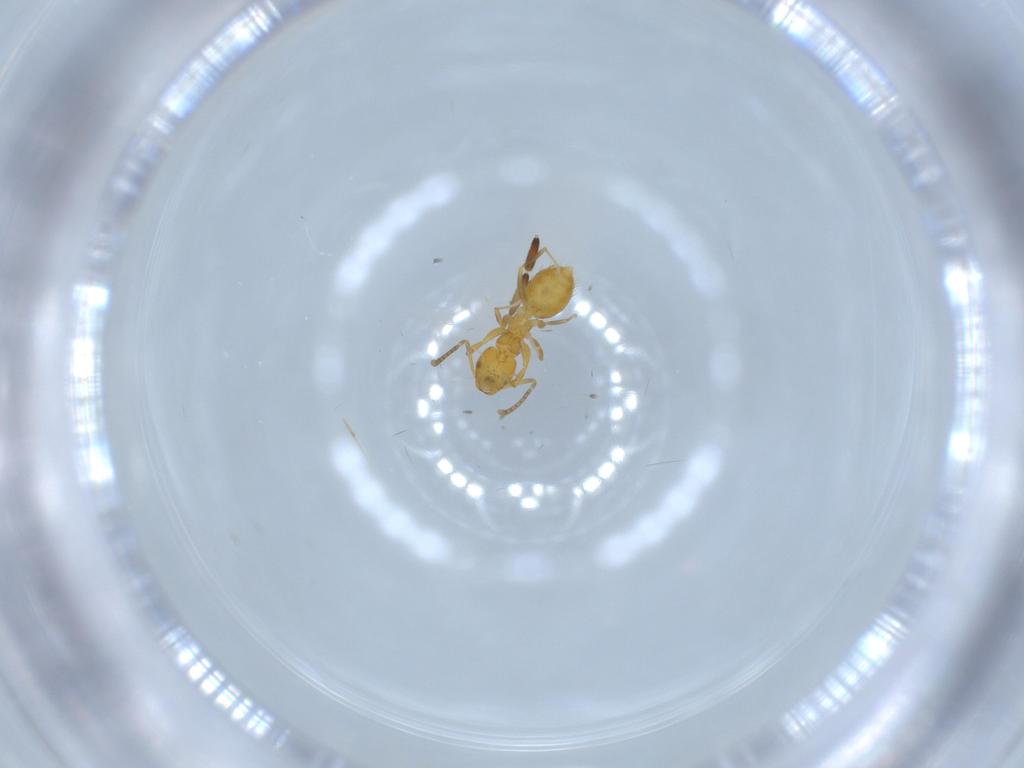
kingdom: Animalia
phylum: Arthropoda
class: Insecta
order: Hymenoptera
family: Formicidae
